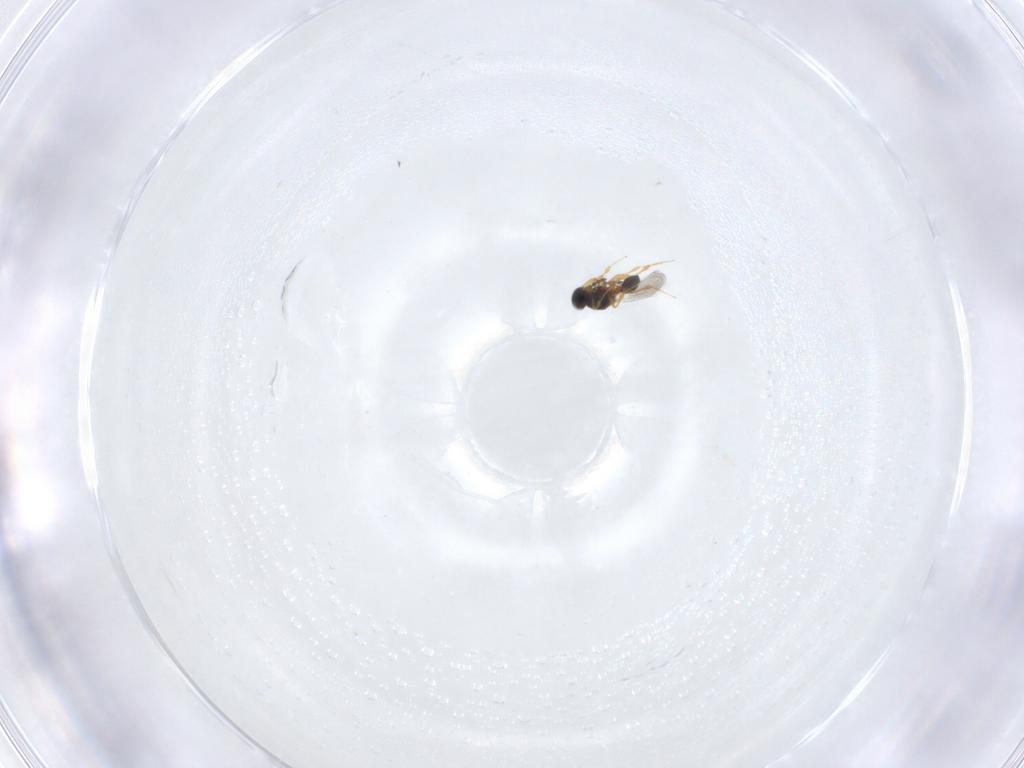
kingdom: Animalia
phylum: Arthropoda
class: Insecta
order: Hymenoptera
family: Platygastridae
